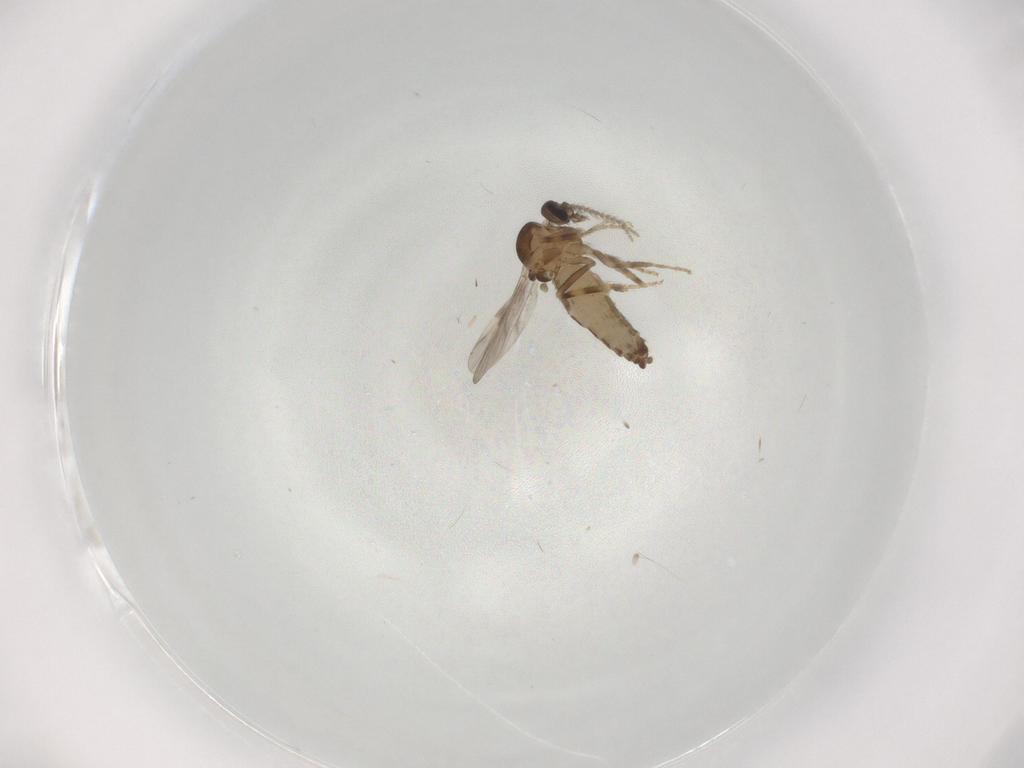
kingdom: Animalia
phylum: Arthropoda
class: Insecta
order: Diptera
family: Ceratopogonidae
